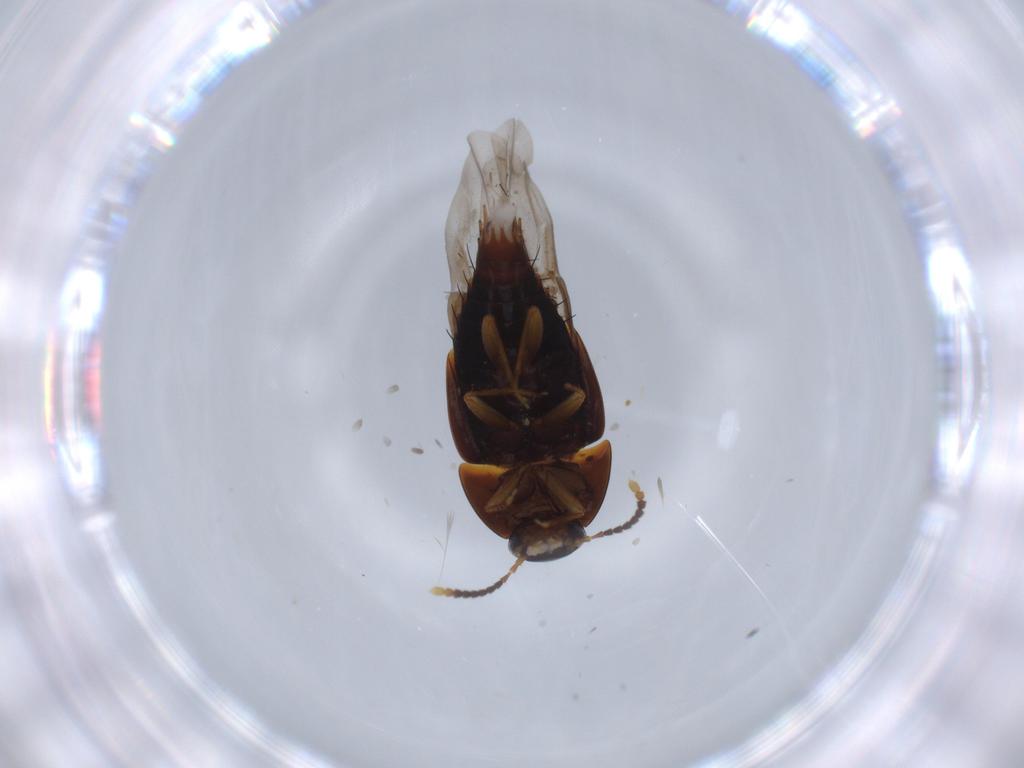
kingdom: Animalia
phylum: Arthropoda
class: Insecta
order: Coleoptera
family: Staphylinidae
